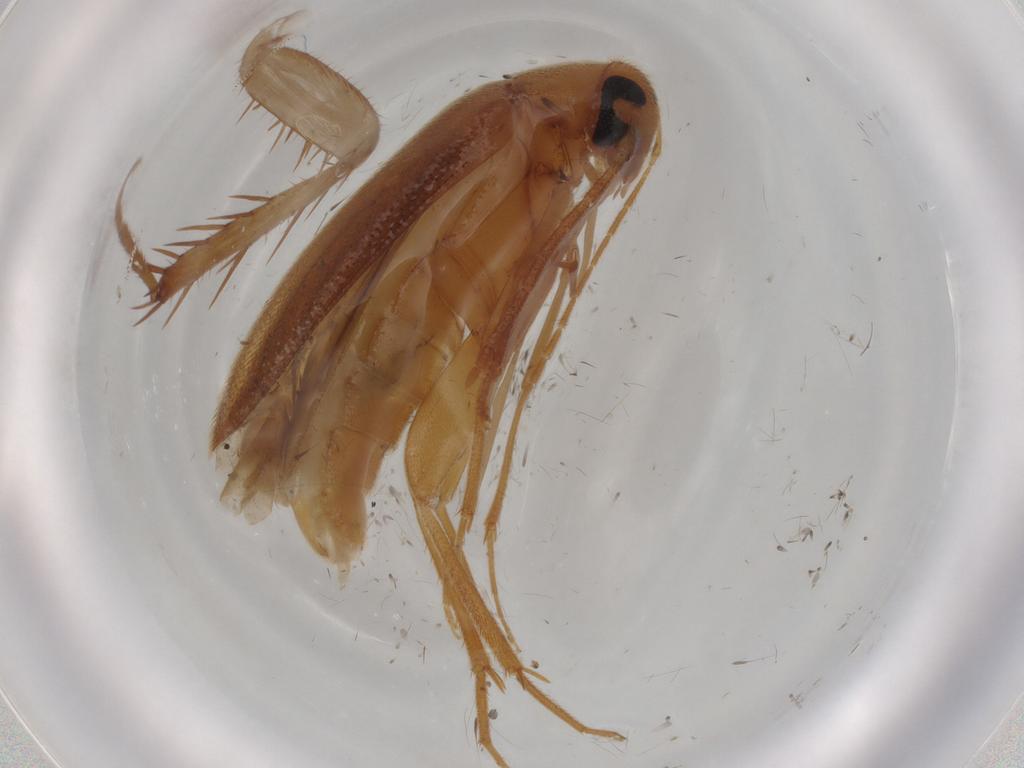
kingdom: Animalia
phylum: Arthropoda
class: Insecta
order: Coleoptera
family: Scraptiidae
